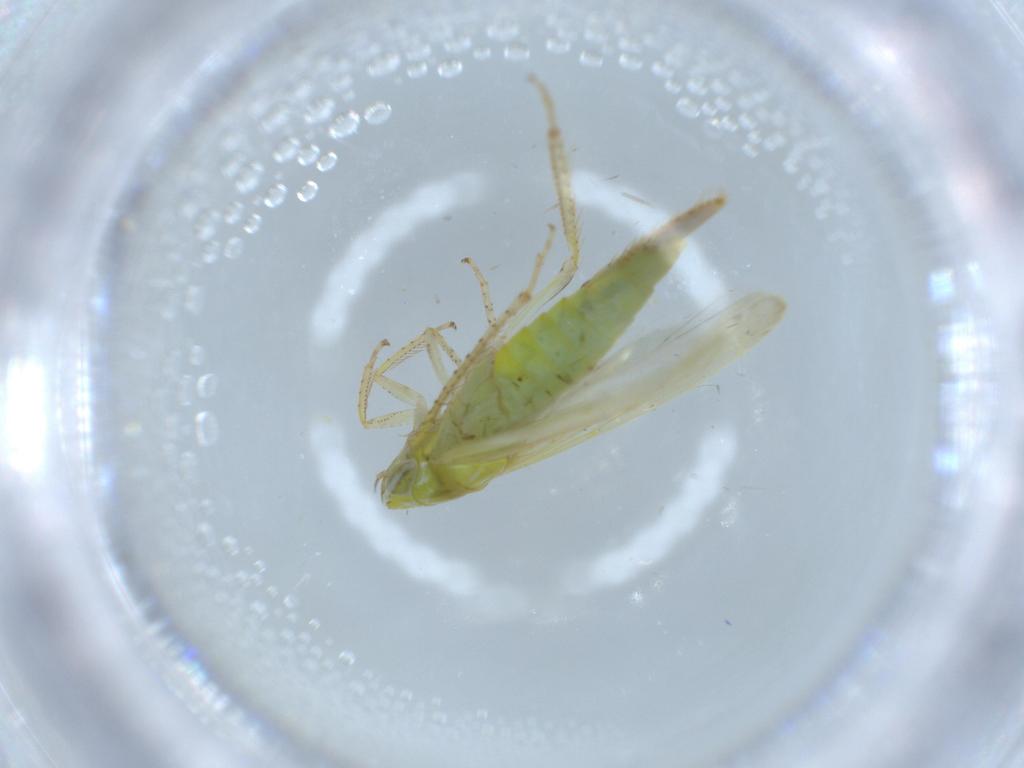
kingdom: Animalia
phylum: Arthropoda
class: Insecta
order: Hemiptera
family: Cicadellidae
